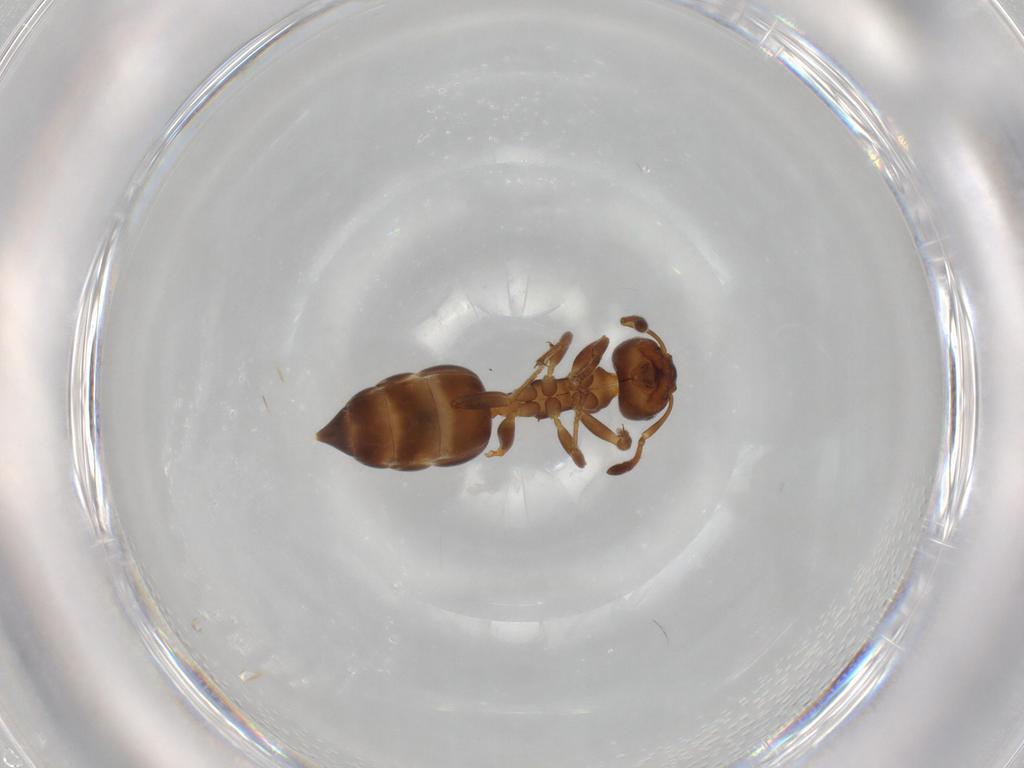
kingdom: Animalia
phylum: Arthropoda
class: Insecta
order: Hymenoptera
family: Formicidae
